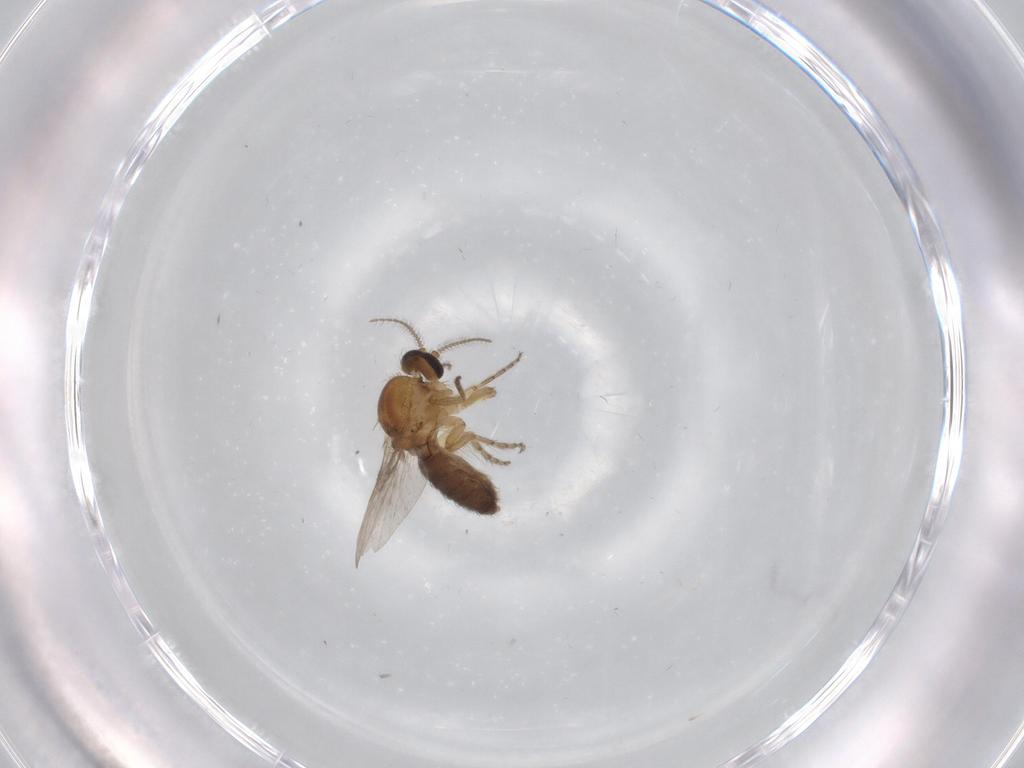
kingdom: Animalia
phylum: Arthropoda
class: Insecta
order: Diptera
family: Ceratopogonidae
